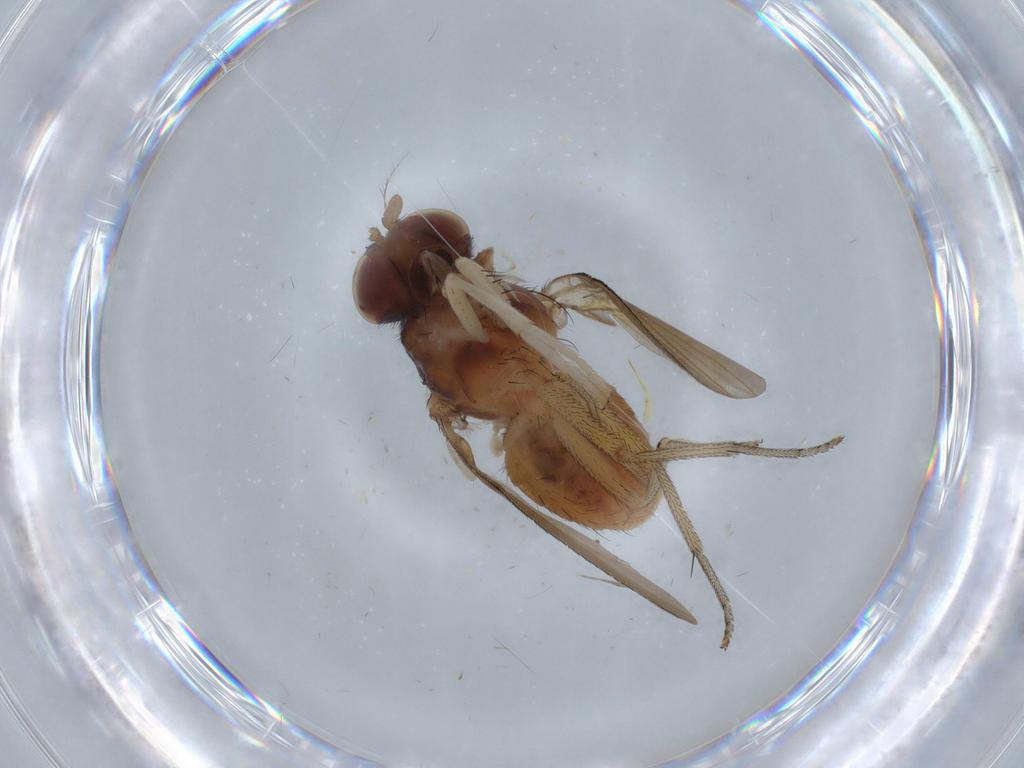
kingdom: Animalia
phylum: Arthropoda
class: Insecta
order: Diptera
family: Lauxaniidae
